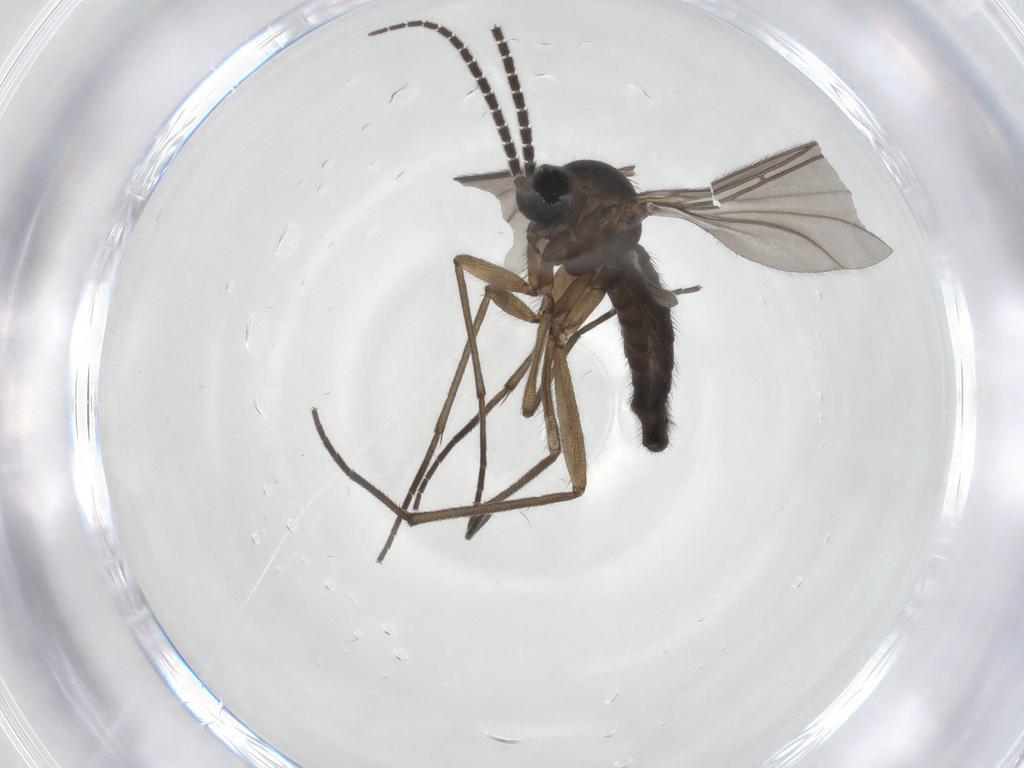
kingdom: Animalia
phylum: Arthropoda
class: Insecta
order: Diptera
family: Sciaridae
